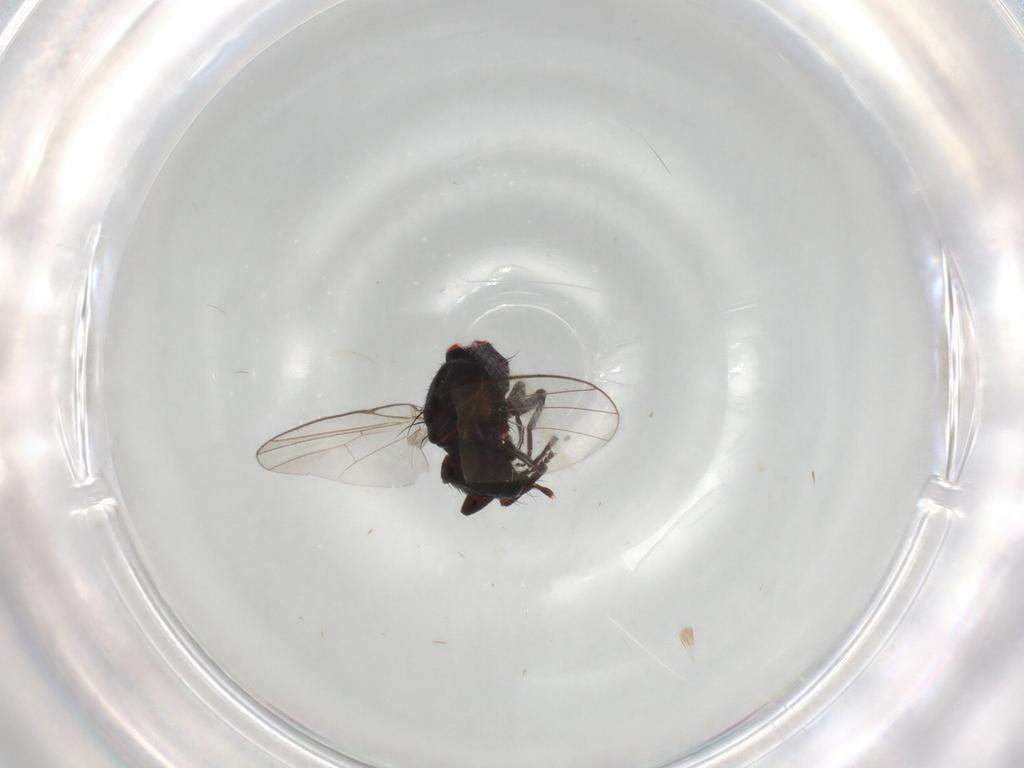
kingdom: Animalia
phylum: Arthropoda
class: Insecta
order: Diptera
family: Agromyzidae
